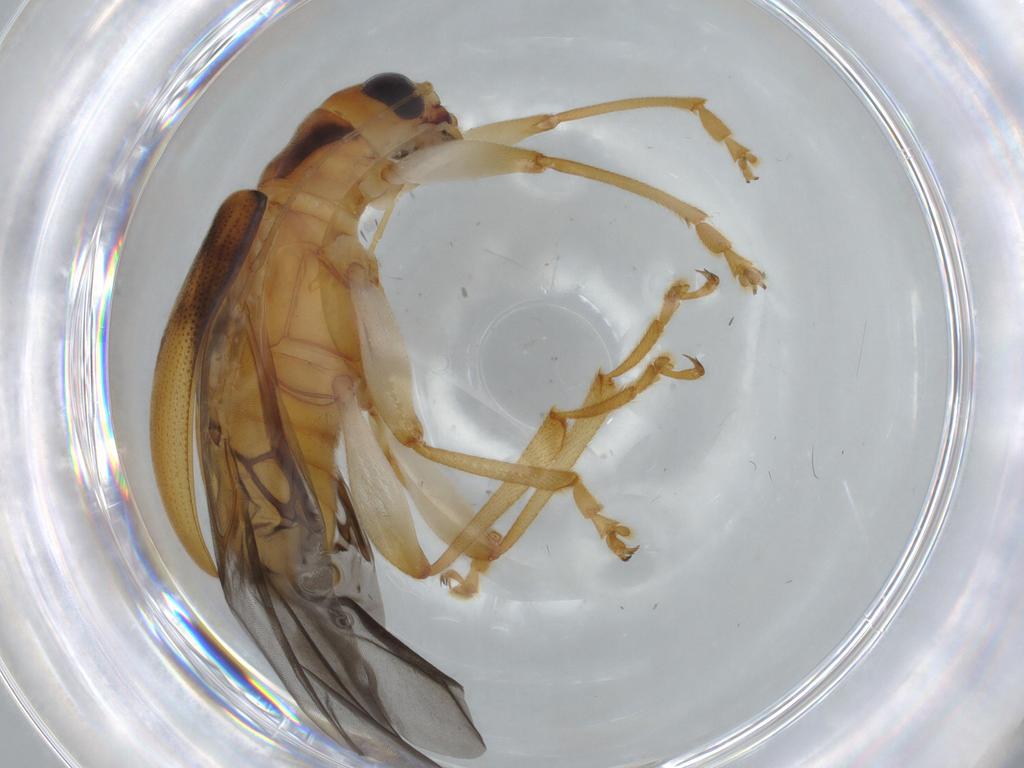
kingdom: Animalia
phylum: Arthropoda
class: Insecta
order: Coleoptera
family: Chrysomelidae
